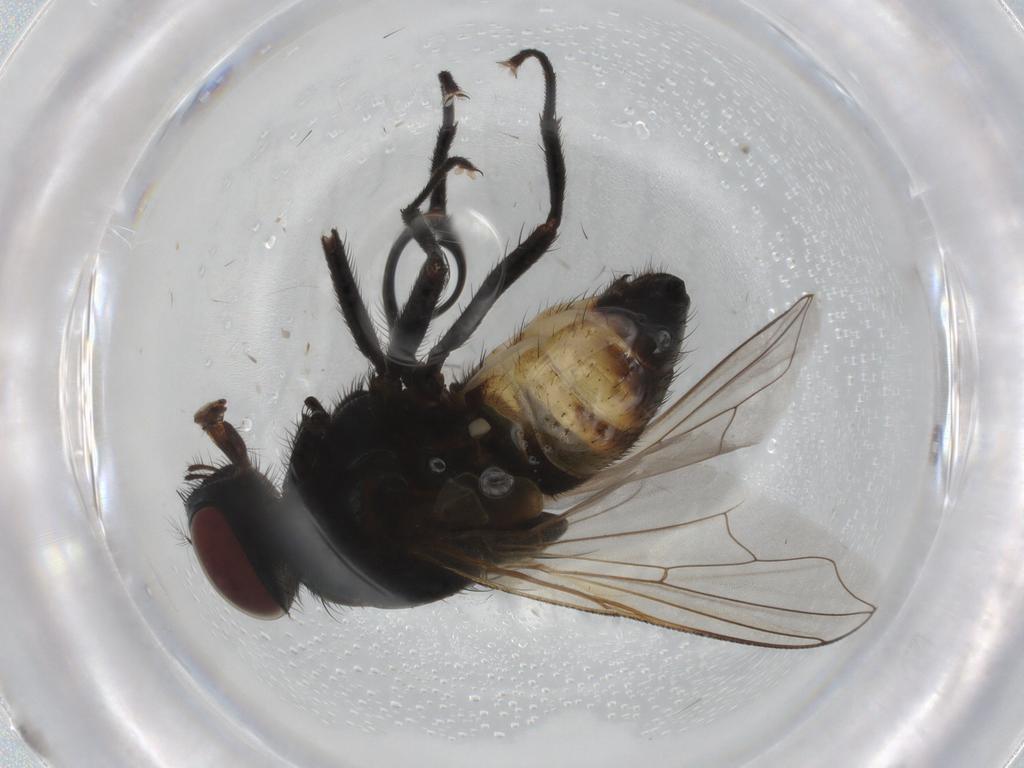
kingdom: Animalia
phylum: Arthropoda
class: Insecta
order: Diptera
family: Muscidae
